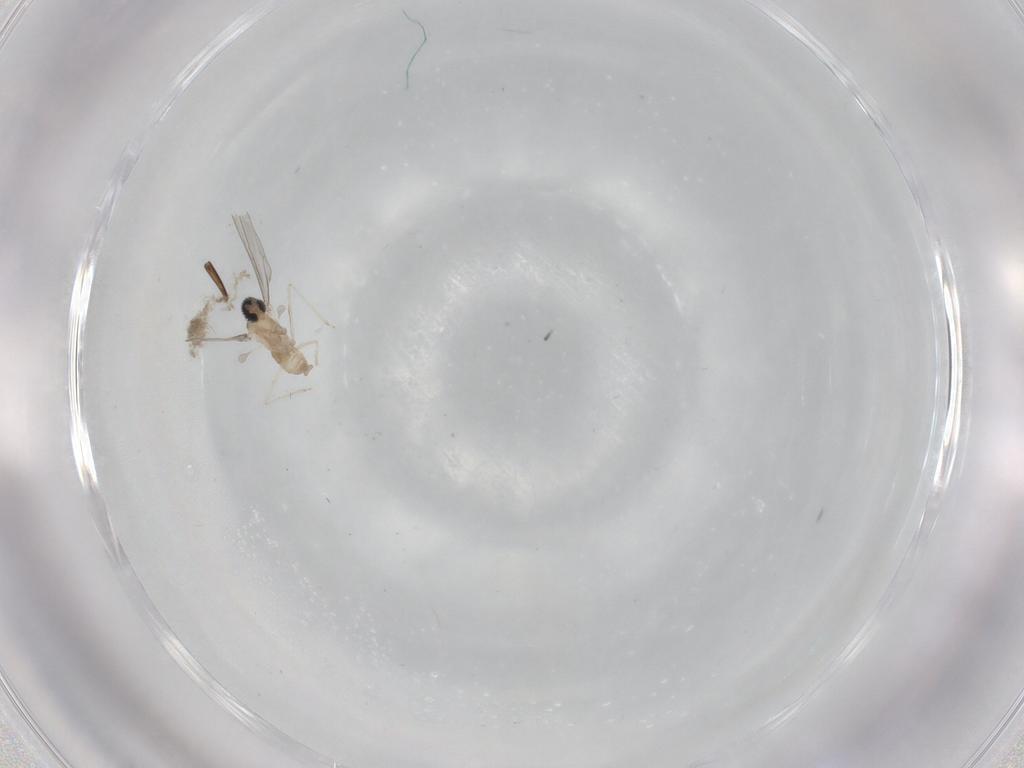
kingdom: Animalia
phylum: Arthropoda
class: Insecta
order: Diptera
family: Cecidomyiidae
